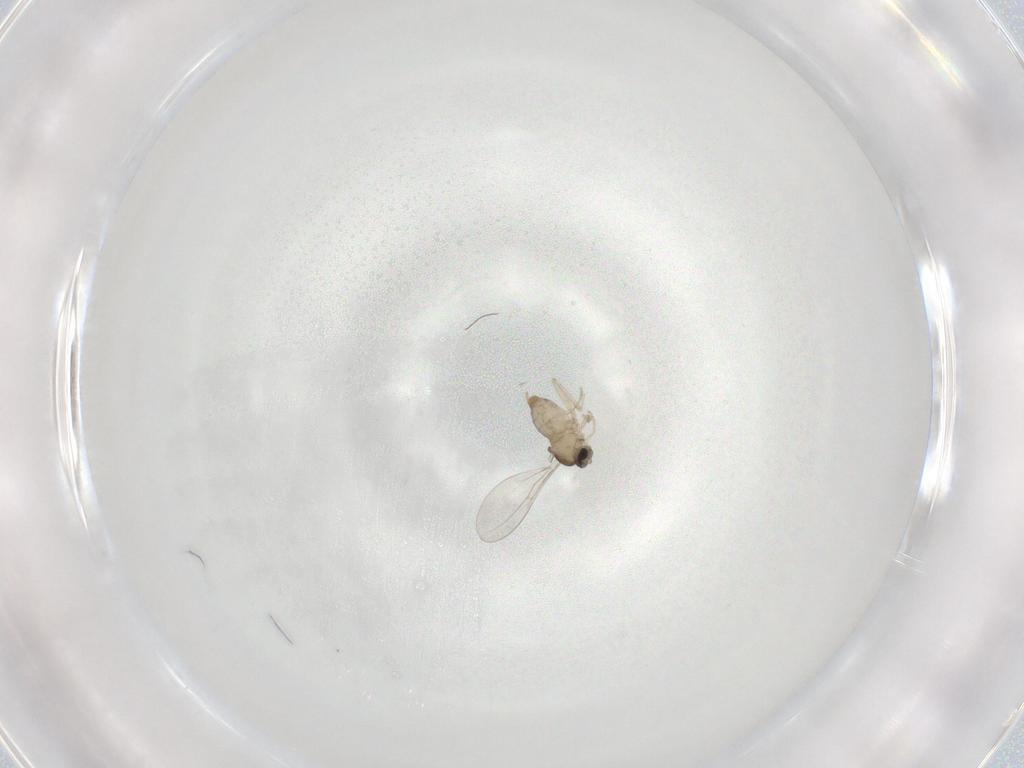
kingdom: Animalia
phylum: Arthropoda
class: Insecta
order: Diptera
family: Cecidomyiidae
